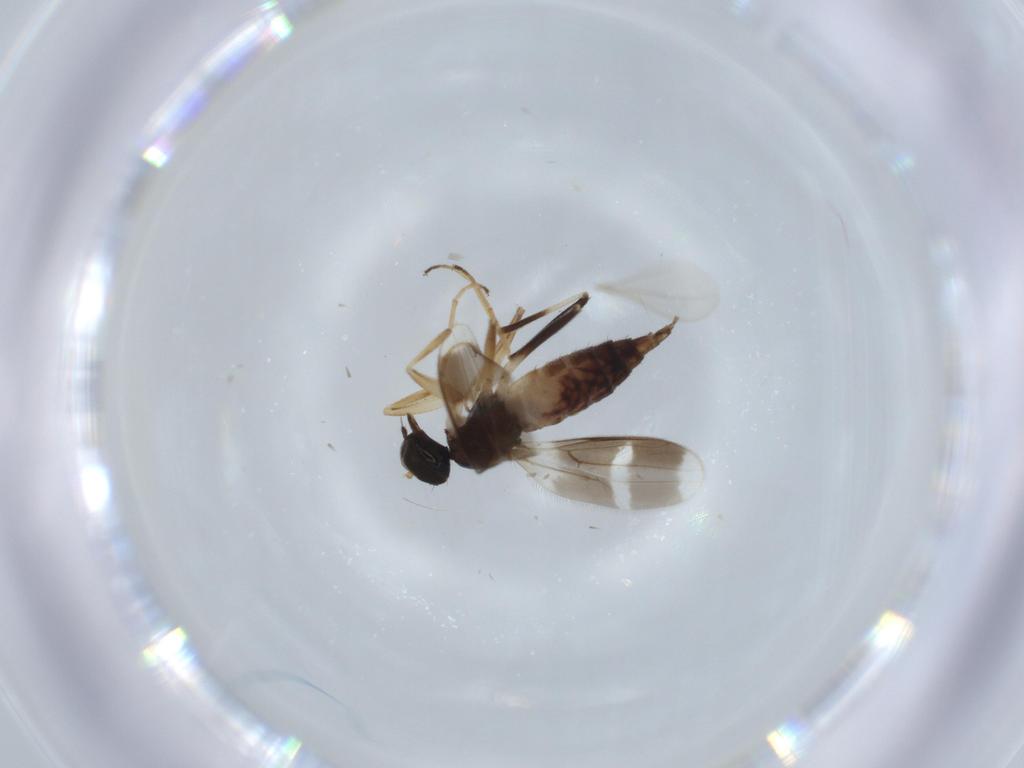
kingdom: Animalia
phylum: Arthropoda
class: Insecta
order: Diptera
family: Hybotidae
